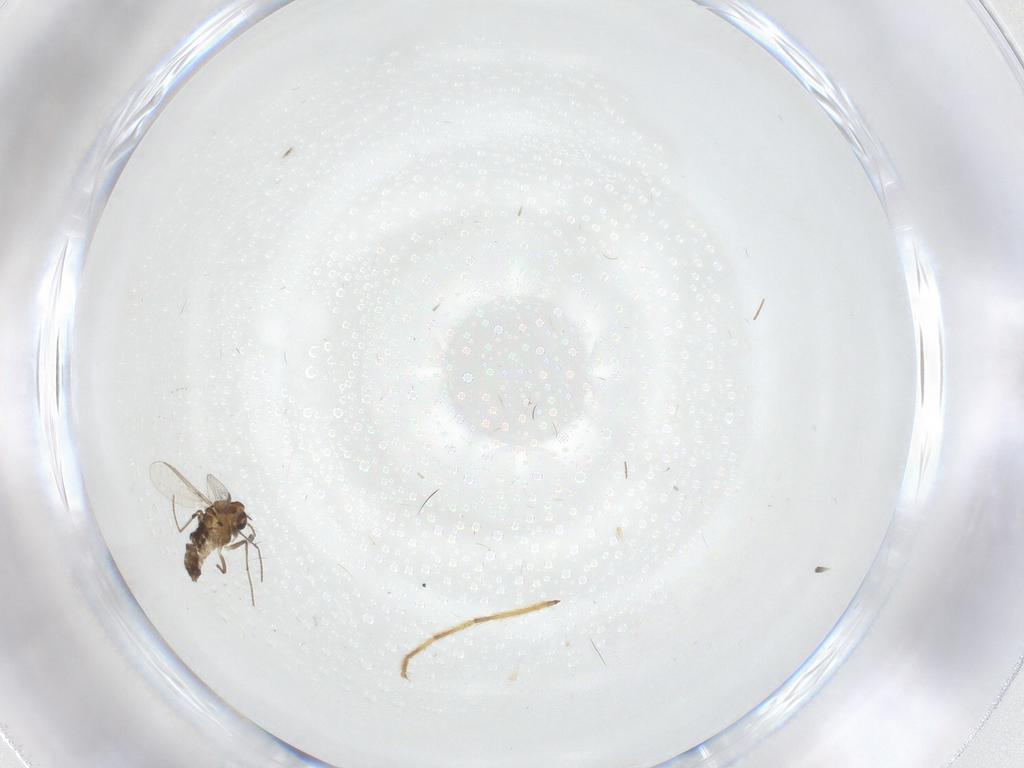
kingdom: Animalia
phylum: Arthropoda
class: Insecta
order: Diptera
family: Chironomidae
